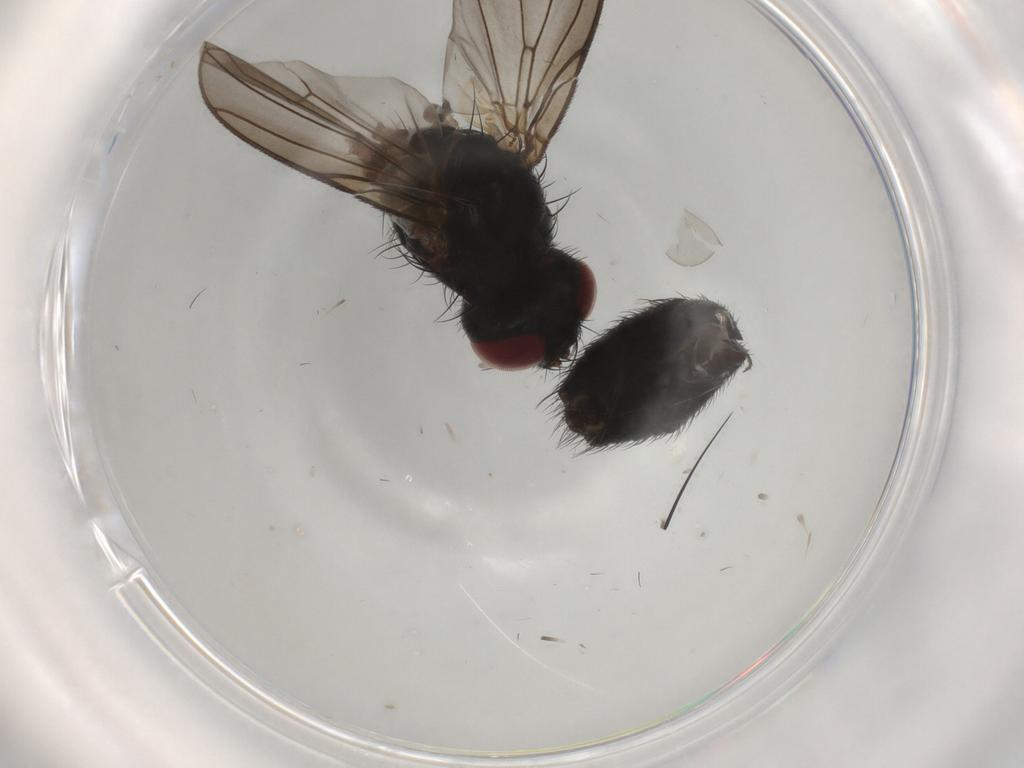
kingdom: Animalia
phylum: Arthropoda
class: Insecta
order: Diptera
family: Tachinidae
